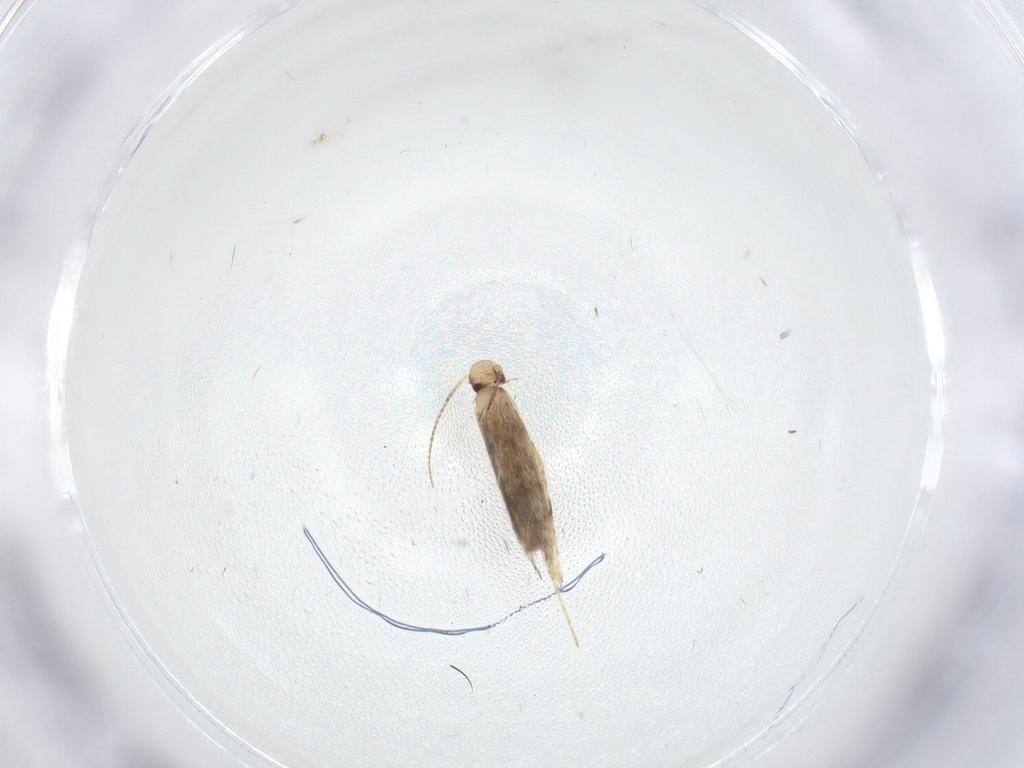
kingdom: Animalia
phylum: Arthropoda
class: Insecta
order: Lepidoptera
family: Gracillariidae
